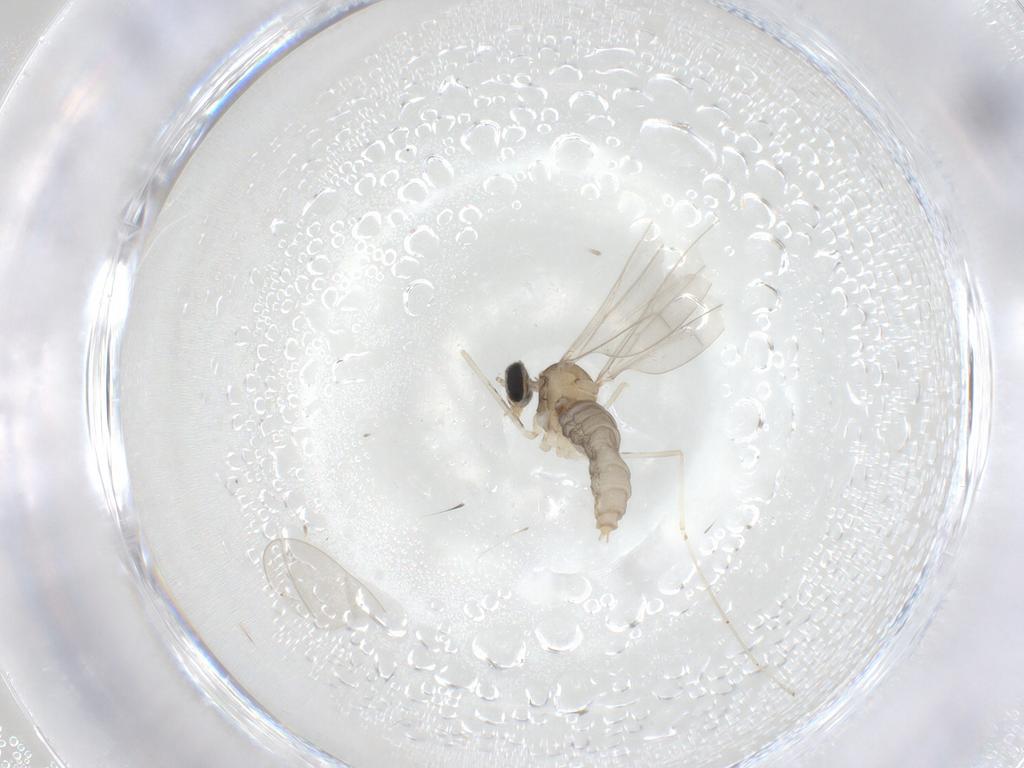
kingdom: Animalia
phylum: Arthropoda
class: Insecta
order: Diptera
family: Cecidomyiidae
